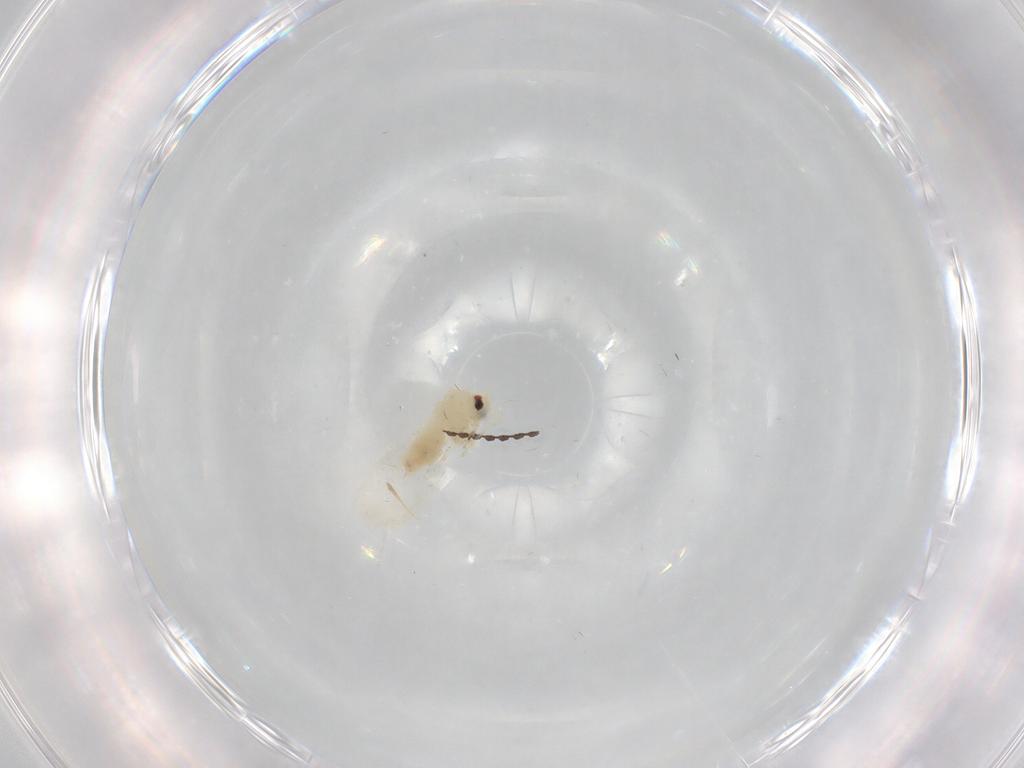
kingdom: Animalia
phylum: Arthropoda
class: Insecta
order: Hemiptera
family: Aleyrodidae
